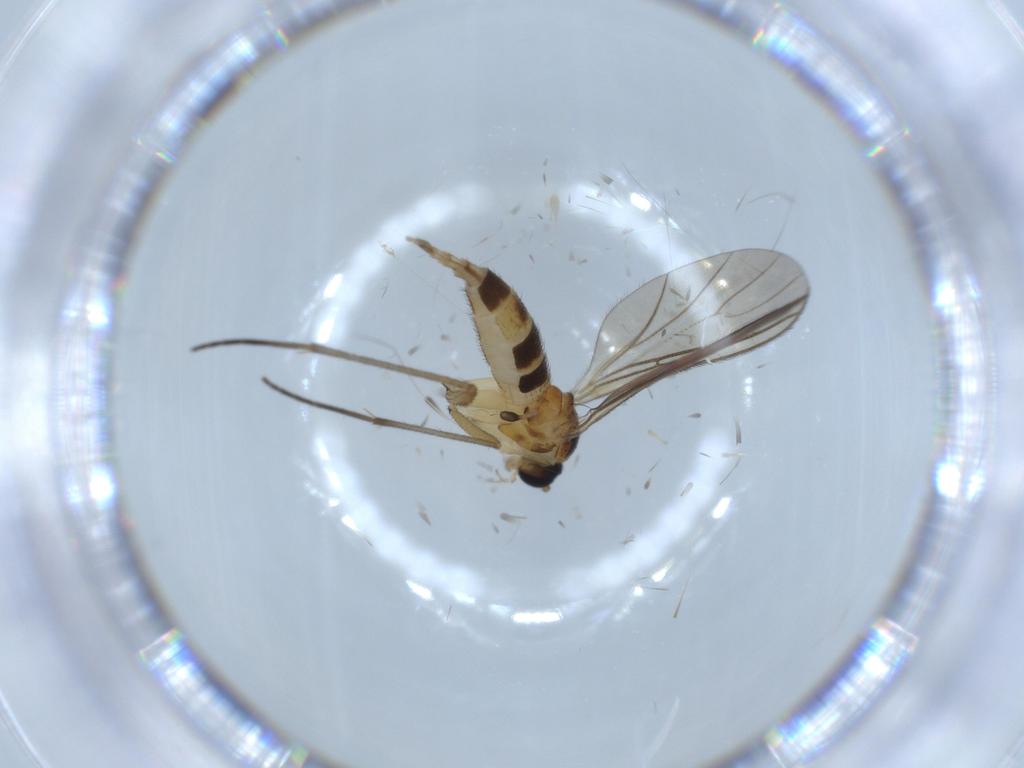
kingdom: Animalia
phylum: Arthropoda
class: Insecta
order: Diptera
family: Sciaridae
